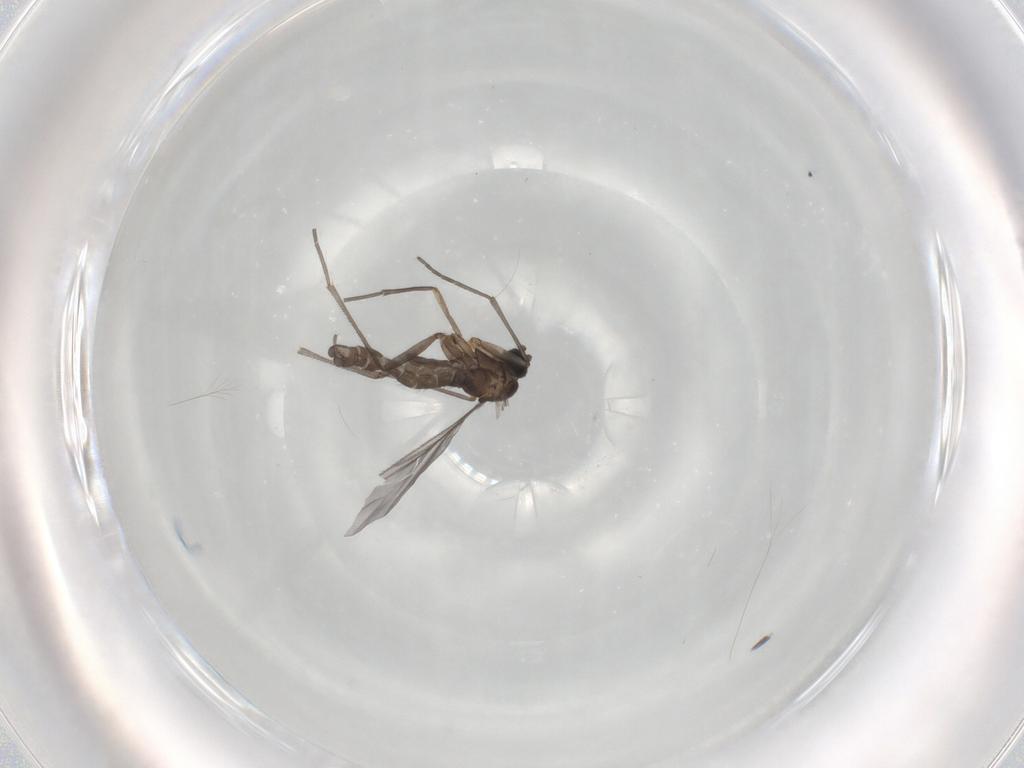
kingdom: Animalia
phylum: Arthropoda
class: Insecta
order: Diptera
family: Sciaridae
